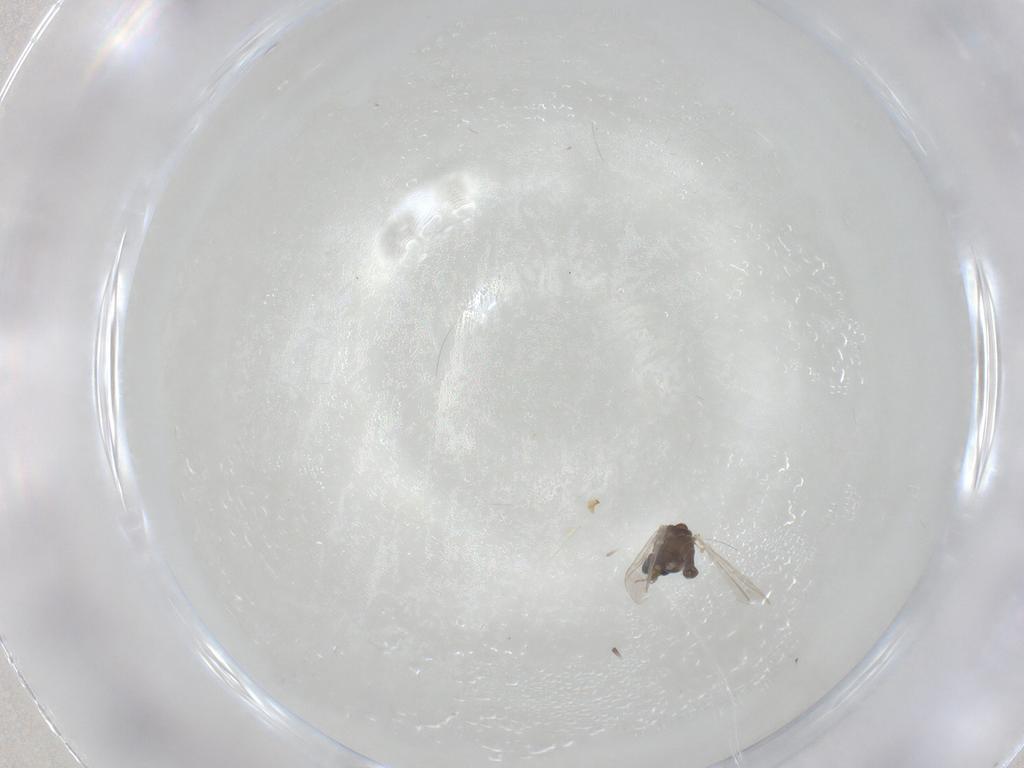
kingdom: Animalia
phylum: Arthropoda
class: Insecta
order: Diptera
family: Chironomidae
